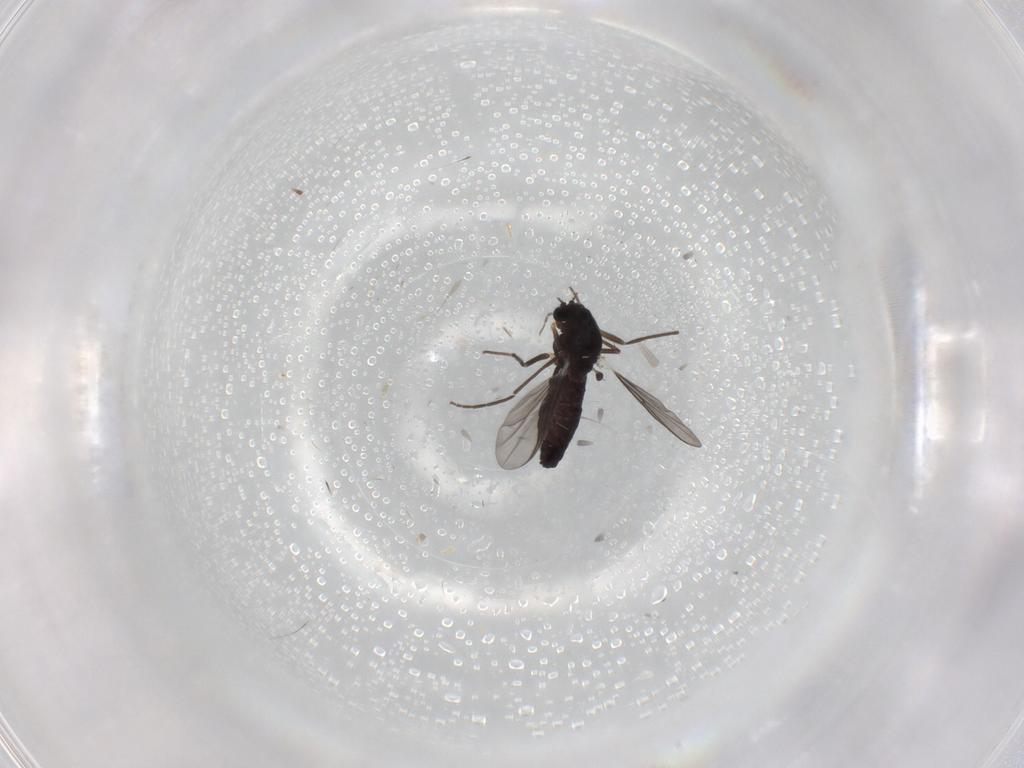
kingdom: Animalia
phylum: Arthropoda
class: Insecta
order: Diptera
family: Chironomidae
